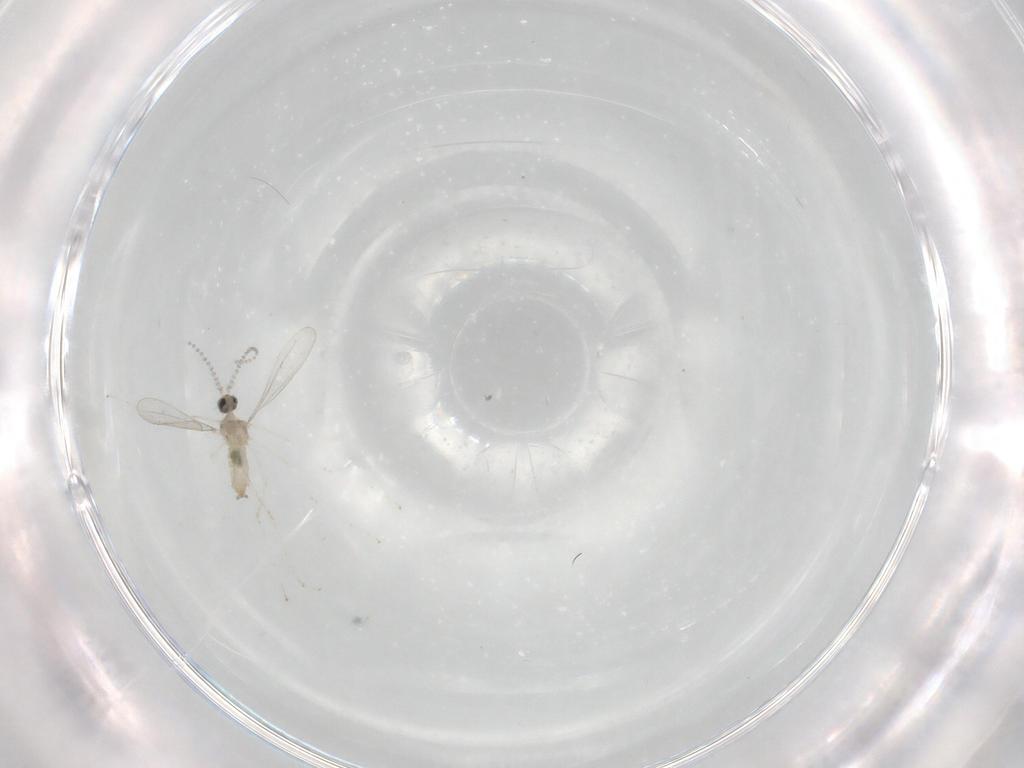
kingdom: Animalia
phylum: Arthropoda
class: Insecta
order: Diptera
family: Cecidomyiidae
